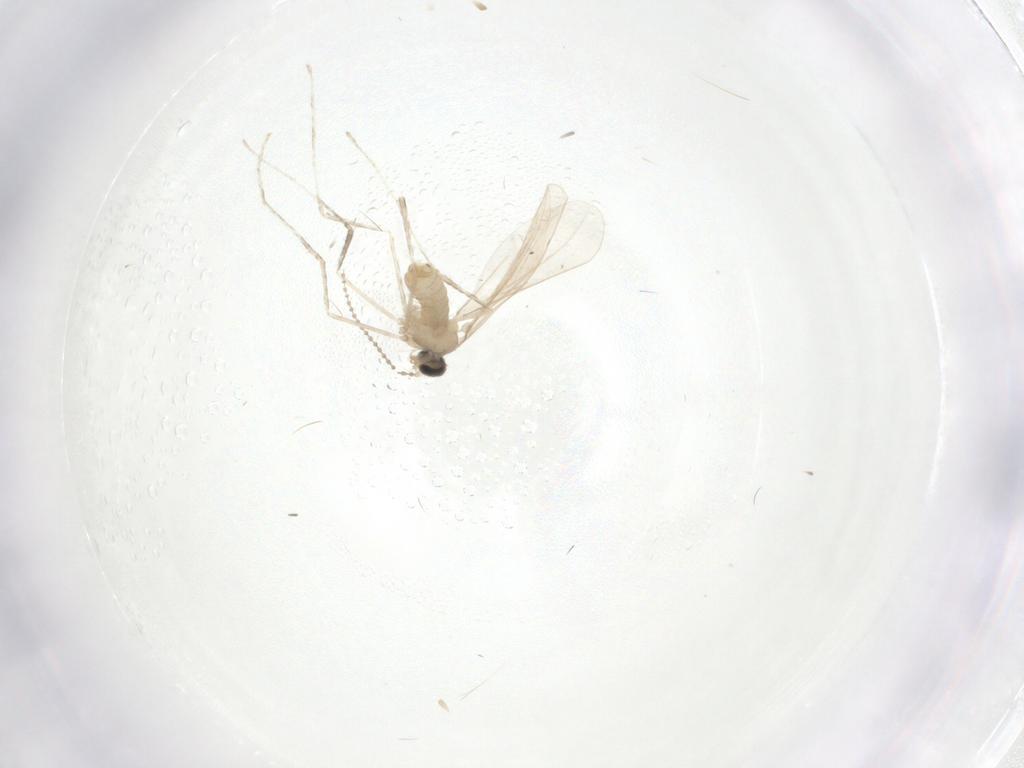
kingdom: Animalia
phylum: Arthropoda
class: Insecta
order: Diptera
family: Cecidomyiidae
